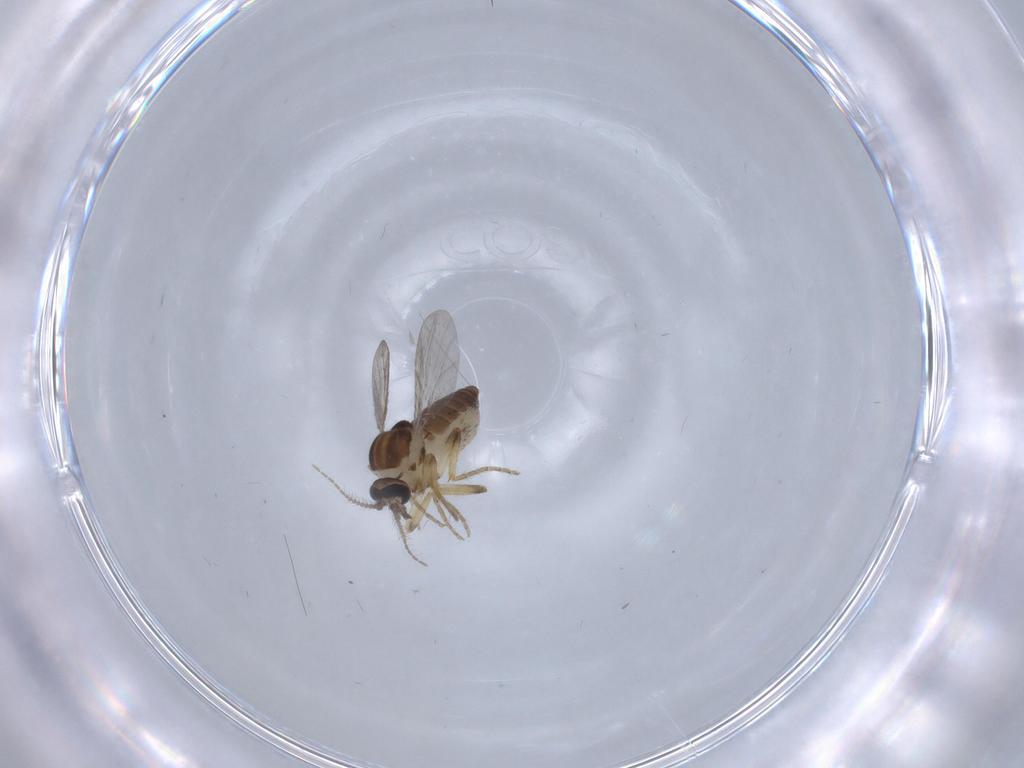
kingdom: Animalia
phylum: Arthropoda
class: Insecta
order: Diptera
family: Ceratopogonidae
